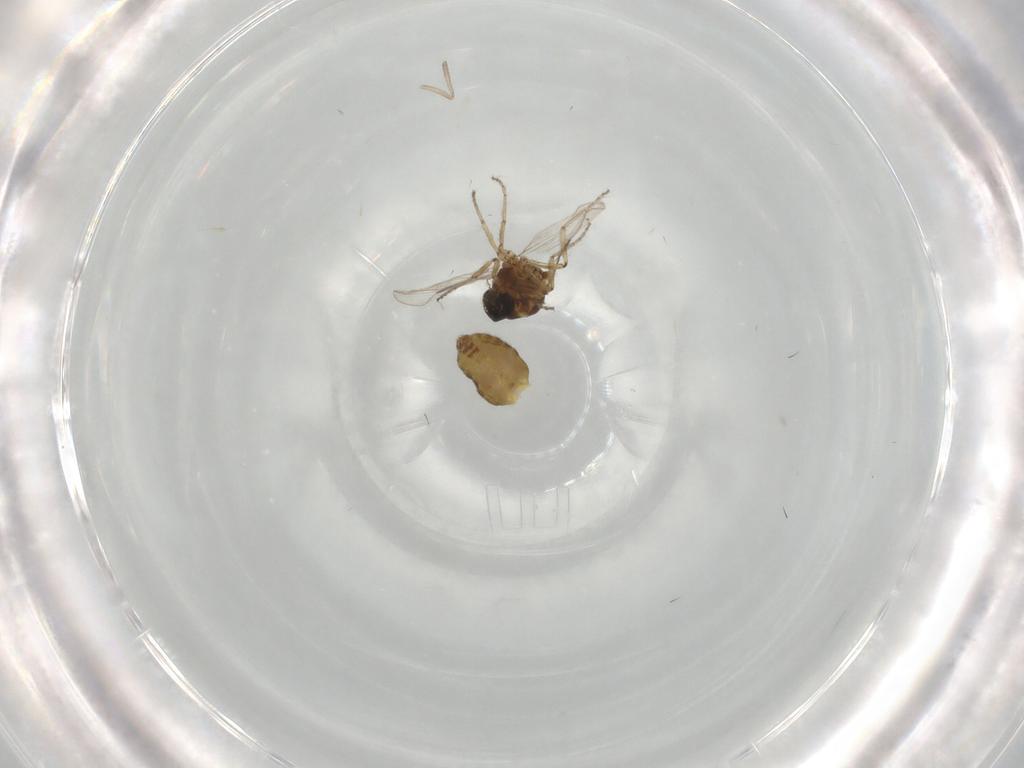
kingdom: Animalia
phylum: Arthropoda
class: Insecta
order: Diptera
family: Ceratopogonidae
